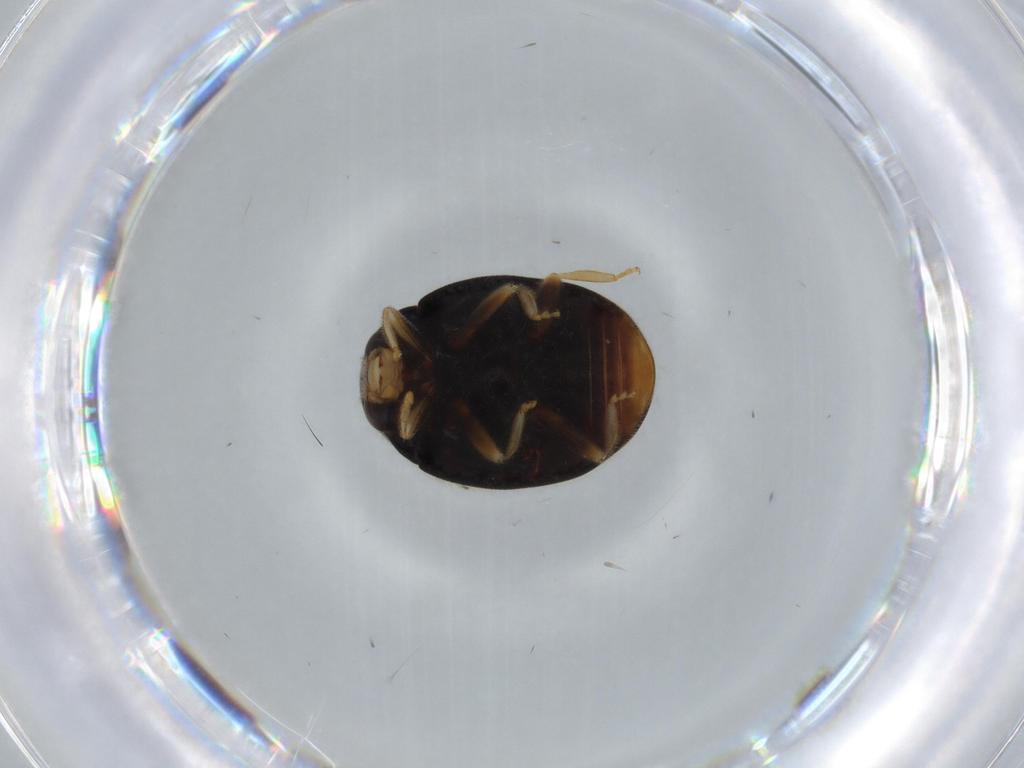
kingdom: Animalia
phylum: Arthropoda
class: Insecta
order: Coleoptera
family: Coccinellidae
